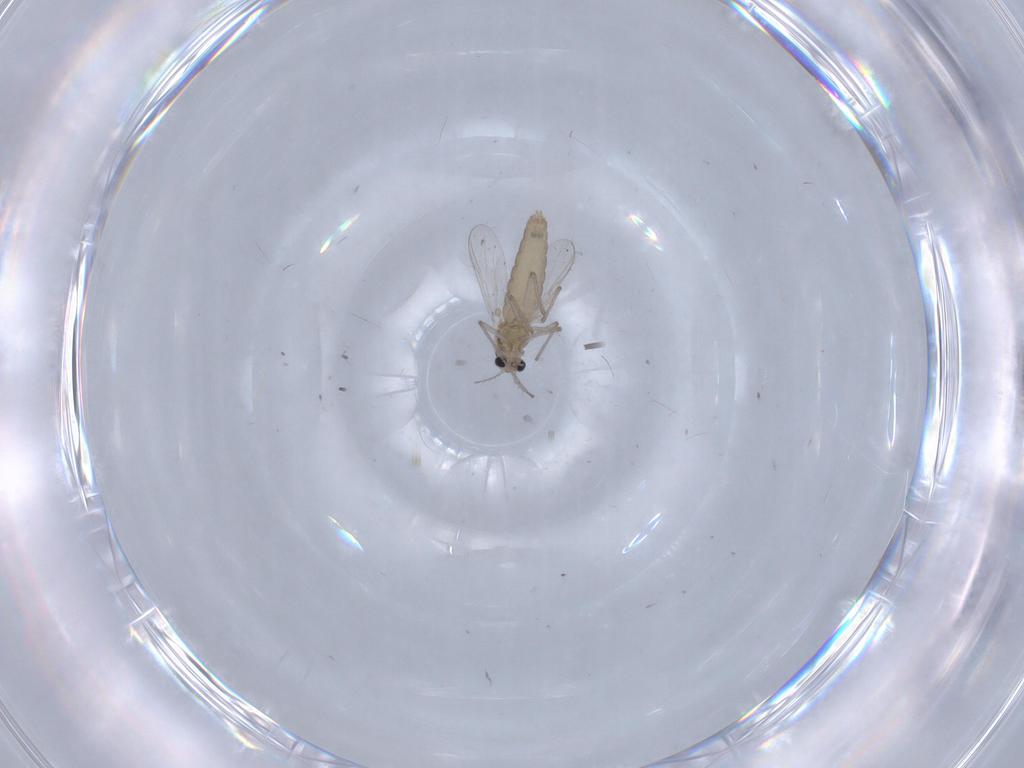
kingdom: Animalia
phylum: Arthropoda
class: Insecta
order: Diptera
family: Chironomidae
